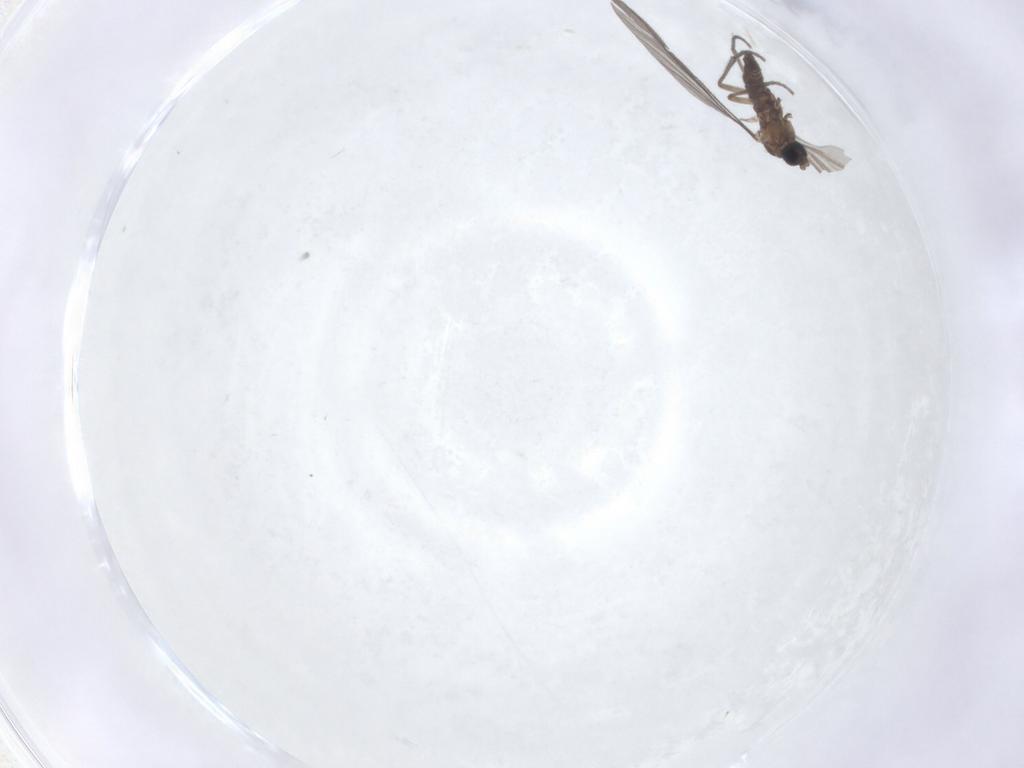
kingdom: Animalia
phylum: Arthropoda
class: Insecta
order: Diptera
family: Sciaridae
